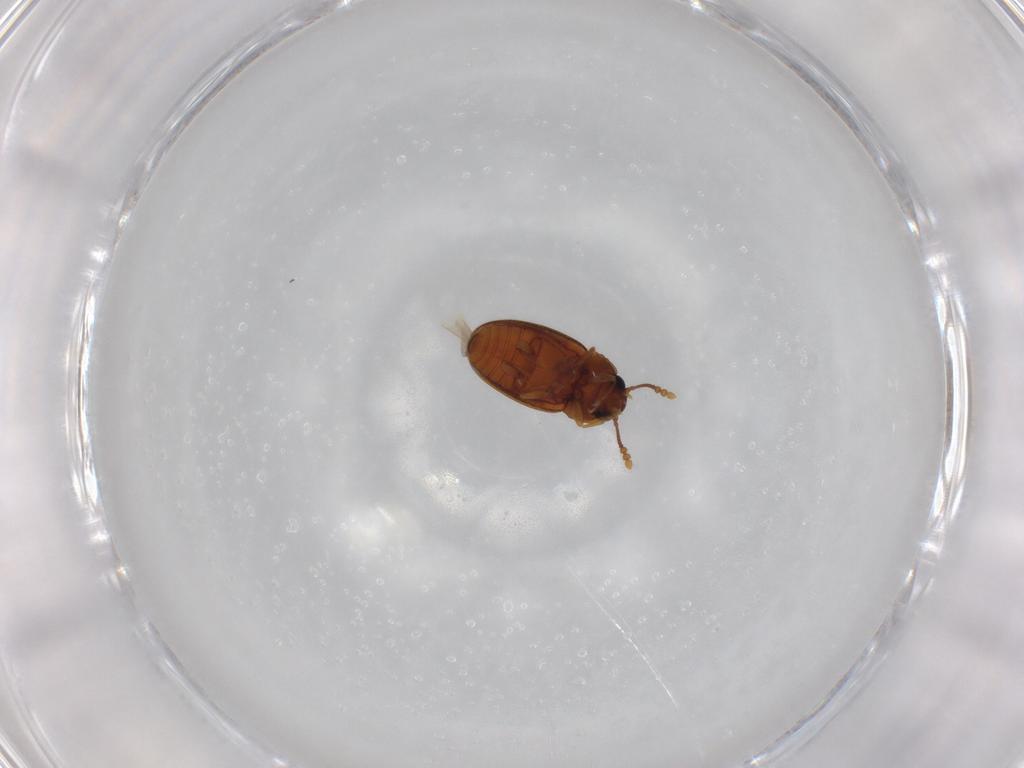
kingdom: Animalia
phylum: Arthropoda
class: Insecta
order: Coleoptera
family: Erotylidae
